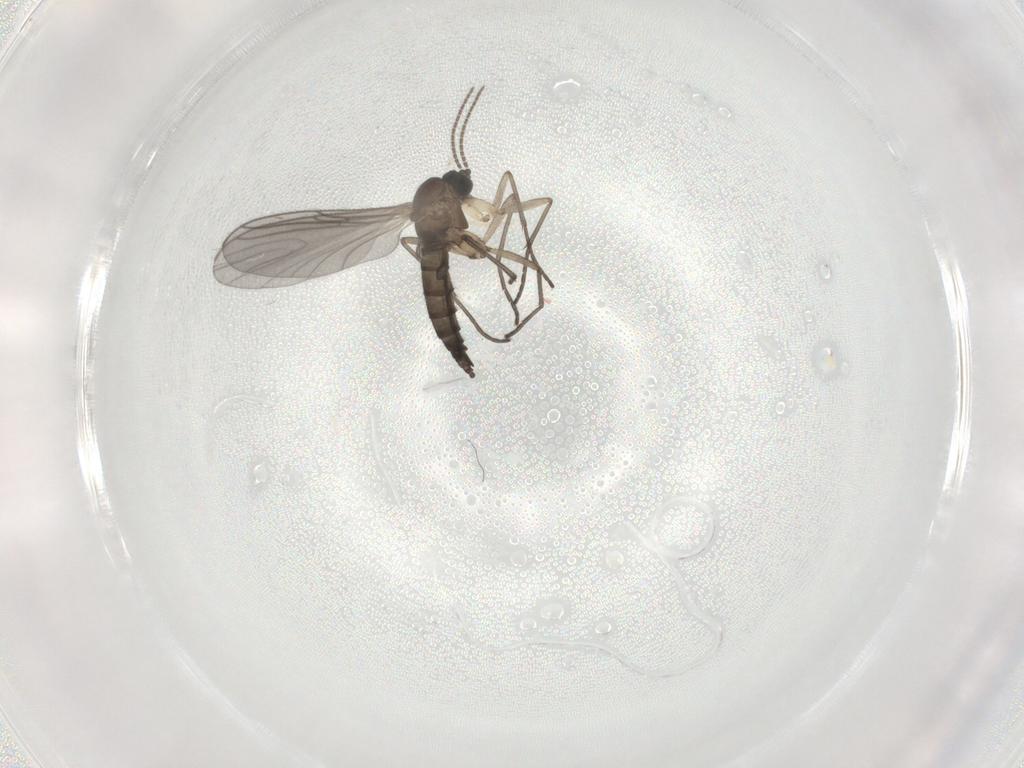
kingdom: Animalia
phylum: Arthropoda
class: Insecta
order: Diptera
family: Sciaridae
